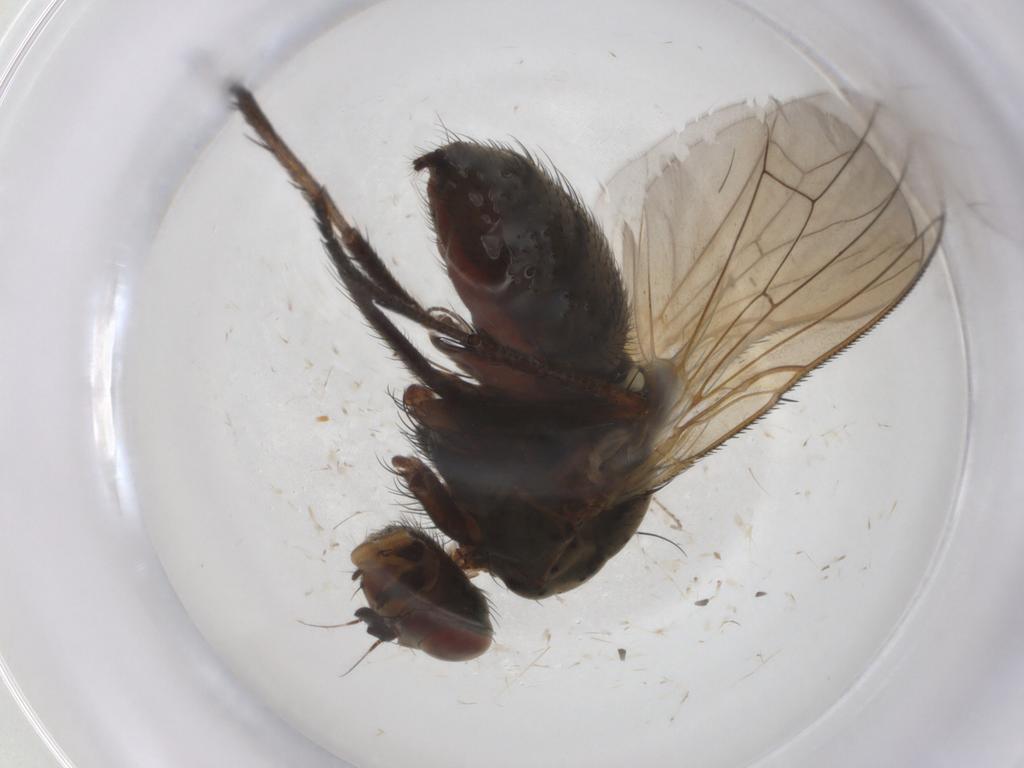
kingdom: Animalia
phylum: Arthropoda
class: Insecta
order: Diptera
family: Anthomyiidae
